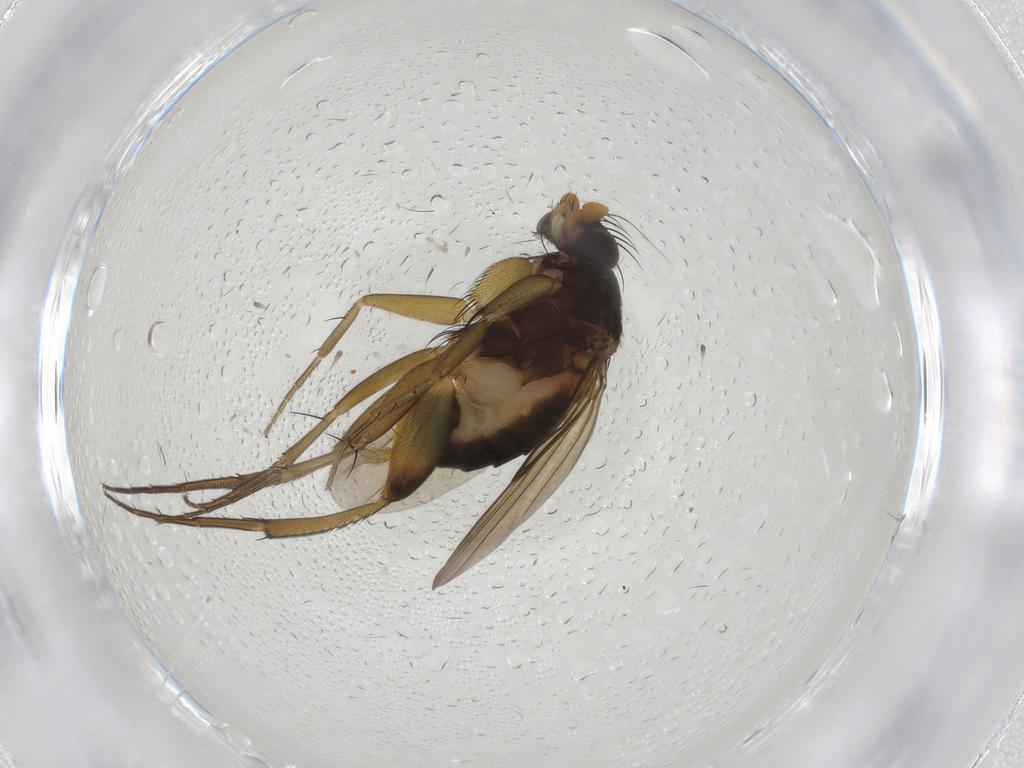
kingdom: Animalia
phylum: Arthropoda
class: Insecta
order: Diptera
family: Phoridae
